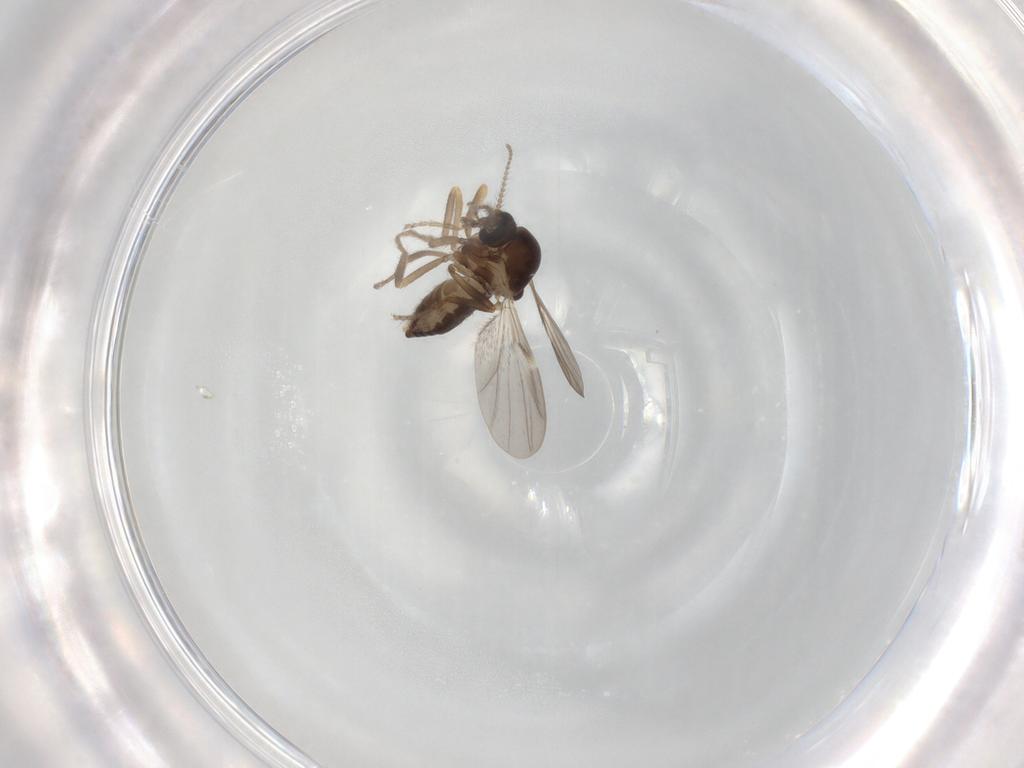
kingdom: Animalia
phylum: Arthropoda
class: Insecta
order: Diptera
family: Ceratopogonidae
